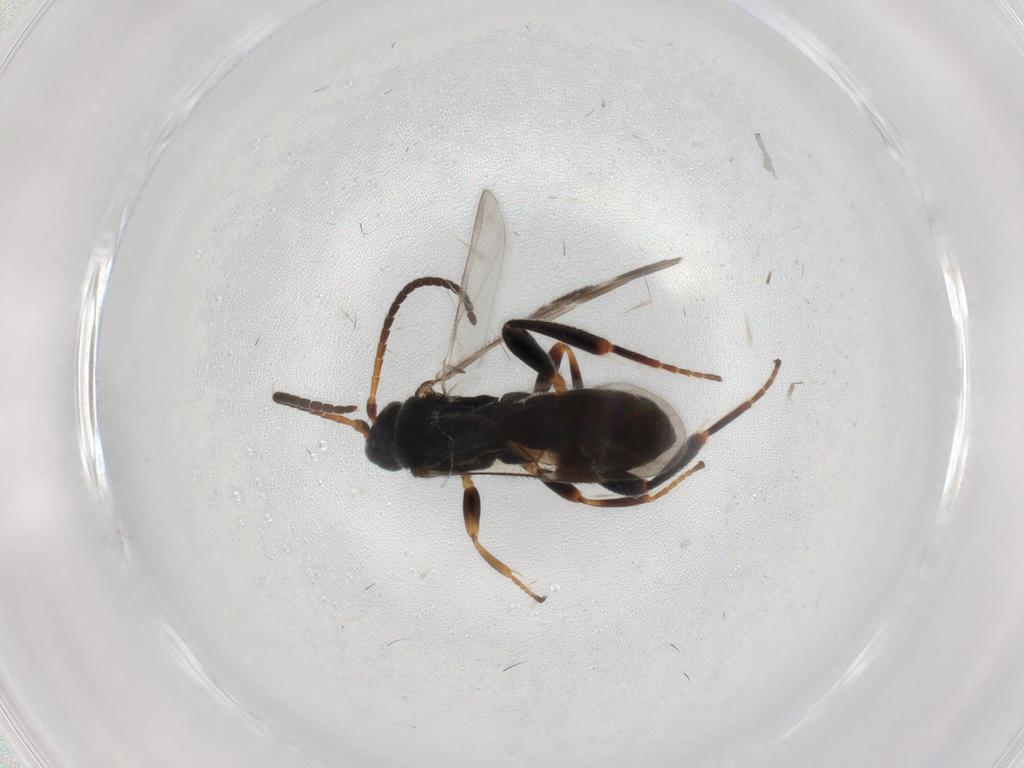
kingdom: Animalia
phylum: Arthropoda
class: Insecta
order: Hymenoptera
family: Braconidae
